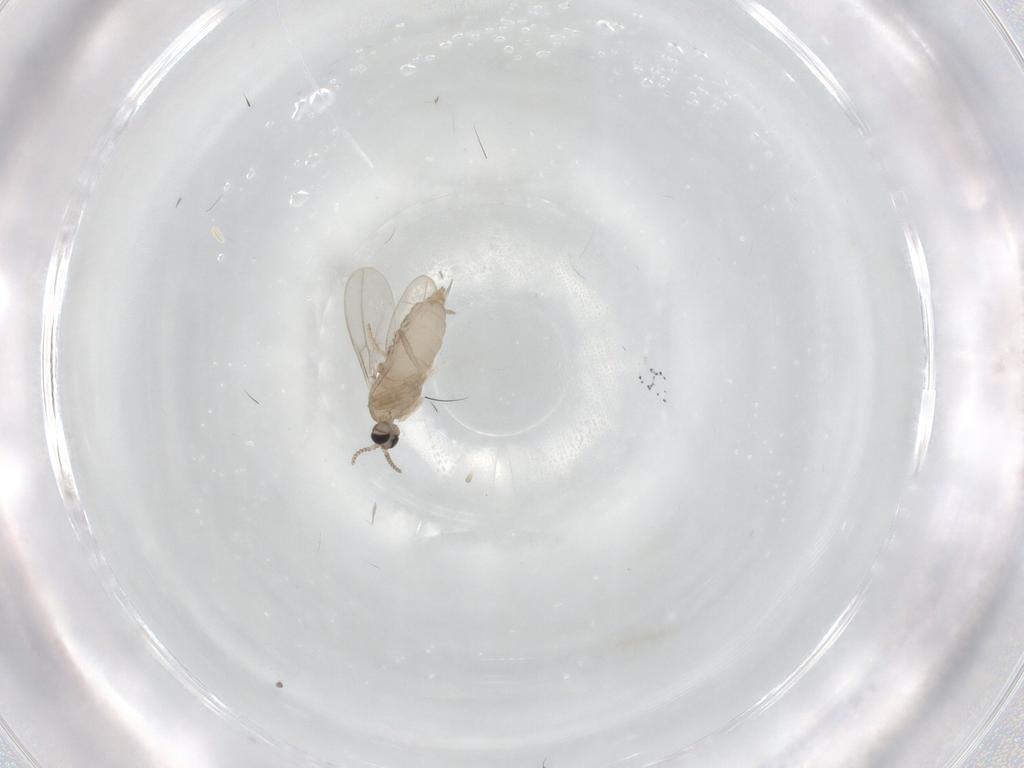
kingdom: Animalia
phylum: Arthropoda
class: Insecta
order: Diptera
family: Cecidomyiidae
